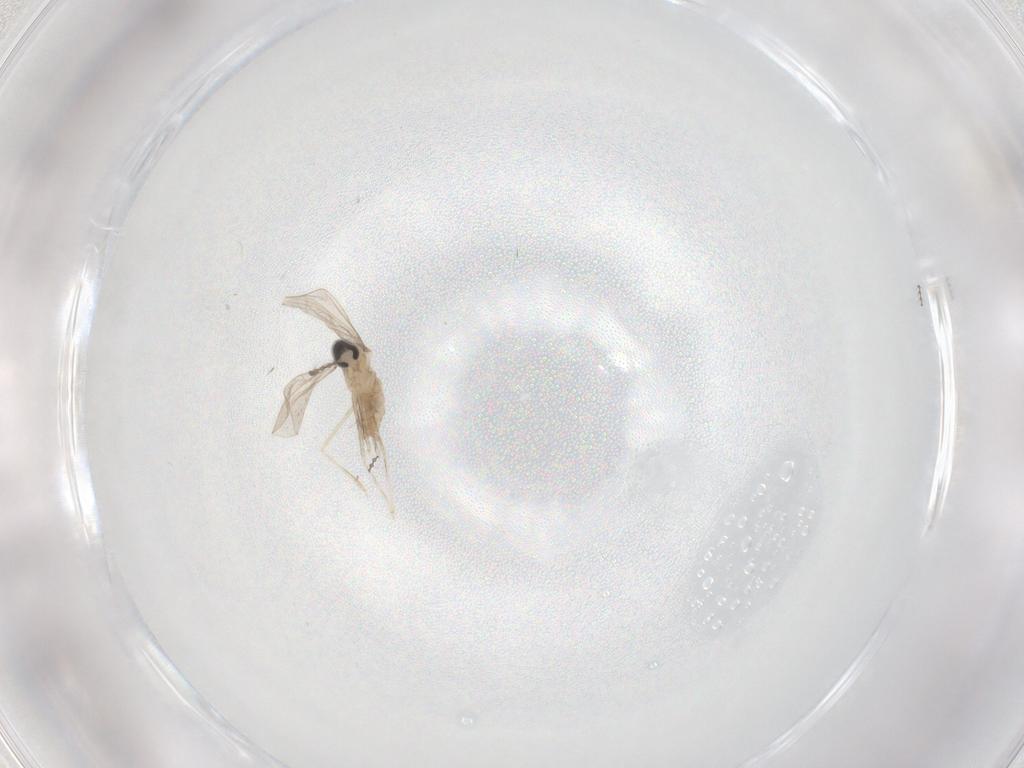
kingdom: Animalia
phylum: Arthropoda
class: Insecta
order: Diptera
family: Cecidomyiidae
